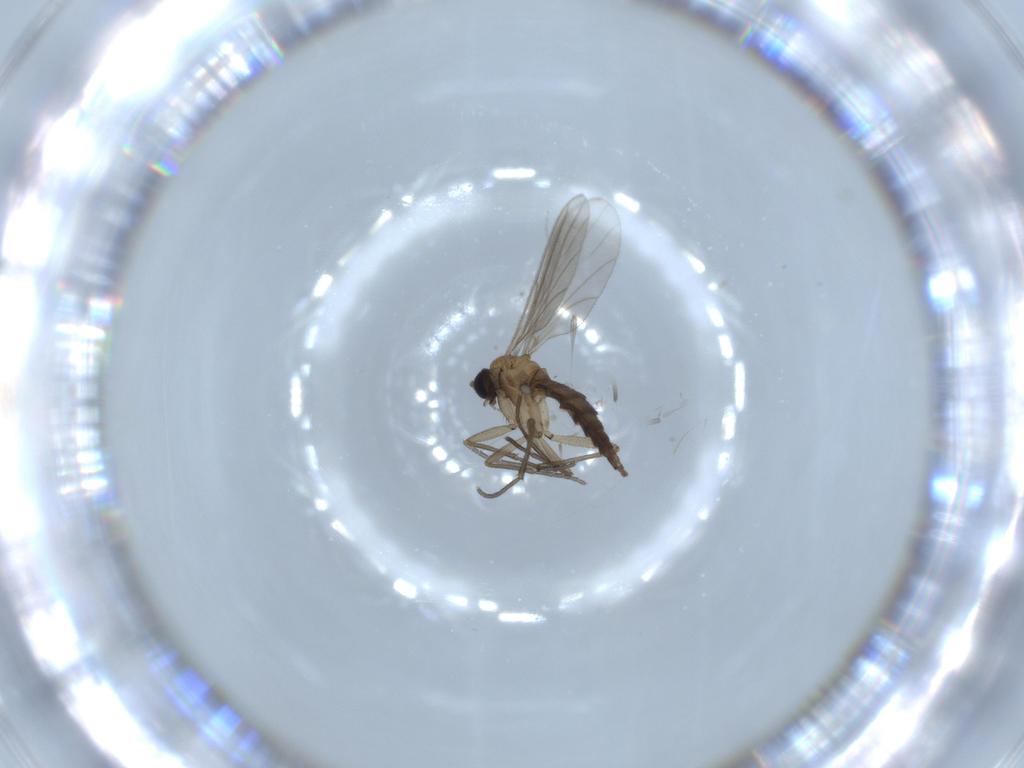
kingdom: Animalia
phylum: Arthropoda
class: Insecta
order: Diptera
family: Sciaridae
